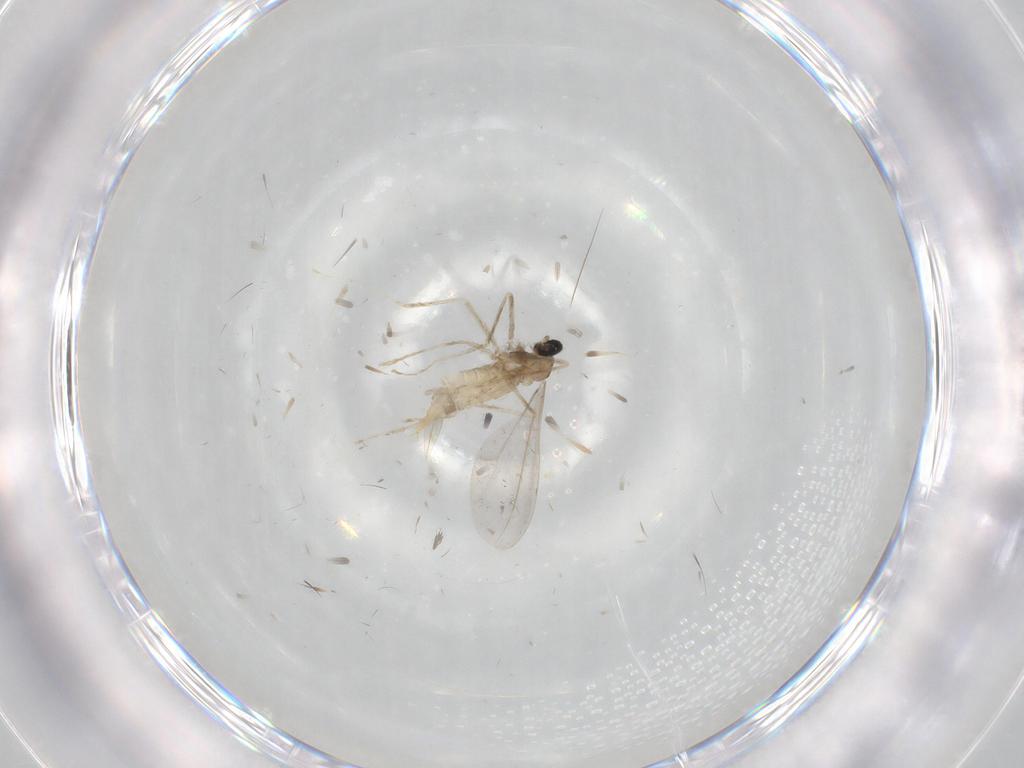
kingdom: Animalia
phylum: Arthropoda
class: Insecta
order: Diptera
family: Cecidomyiidae
